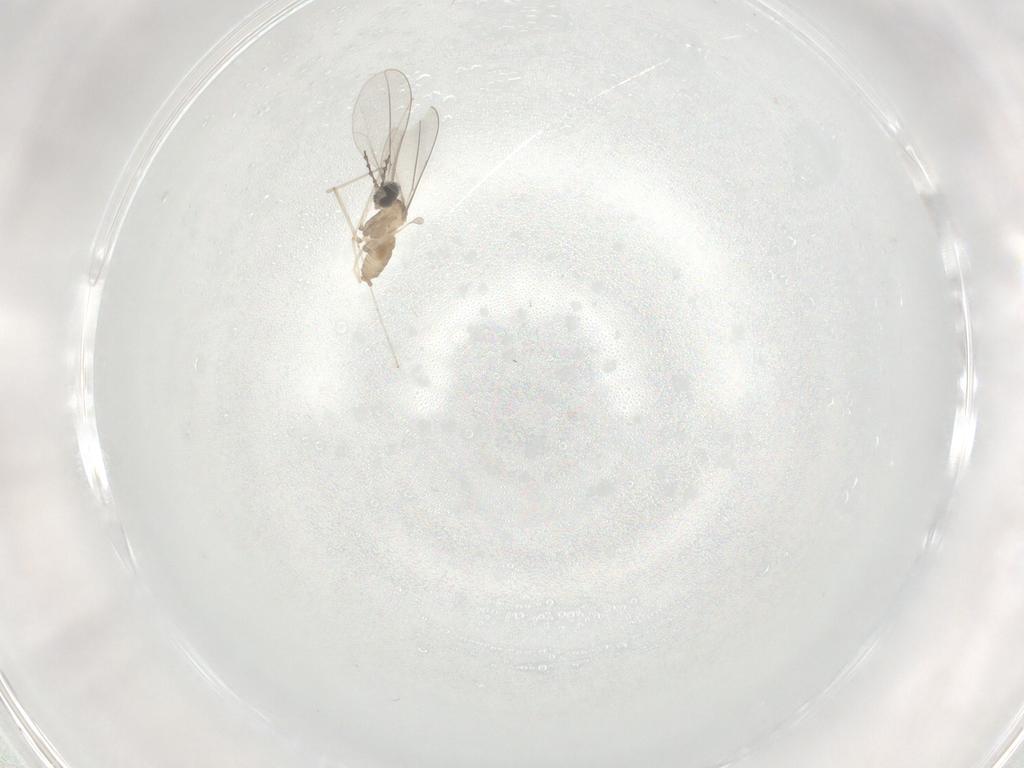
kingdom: Animalia
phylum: Arthropoda
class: Insecta
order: Diptera
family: Cecidomyiidae
